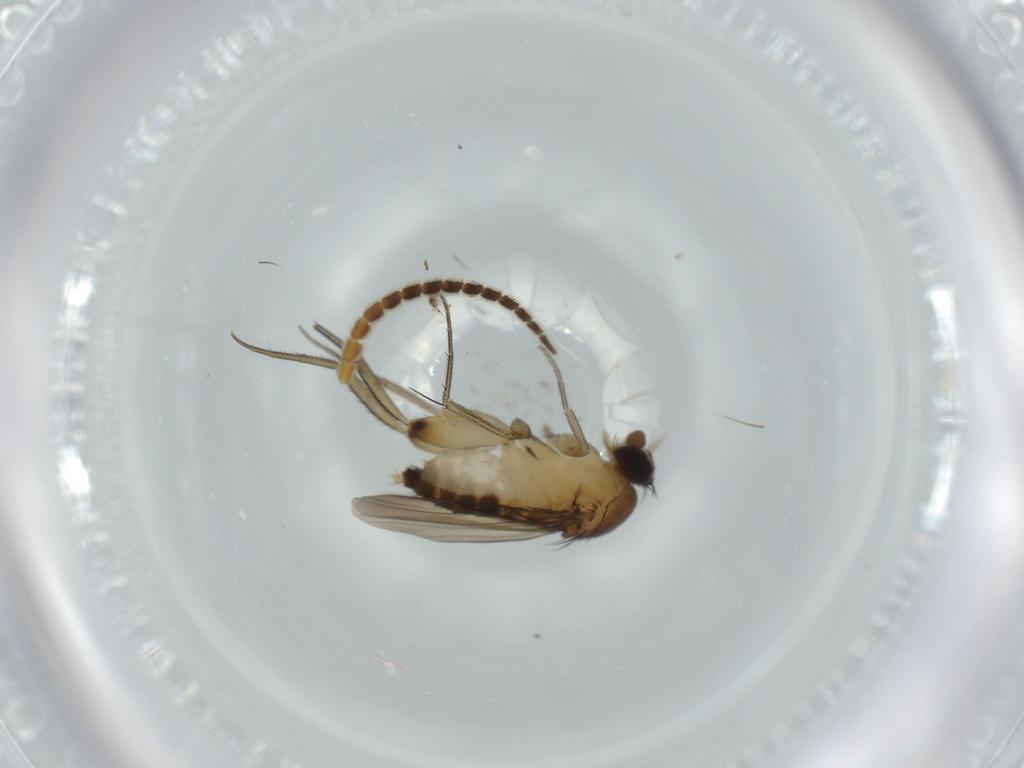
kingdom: Animalia
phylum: Arthropoda
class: Insecta
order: Diptera
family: Phoridae
